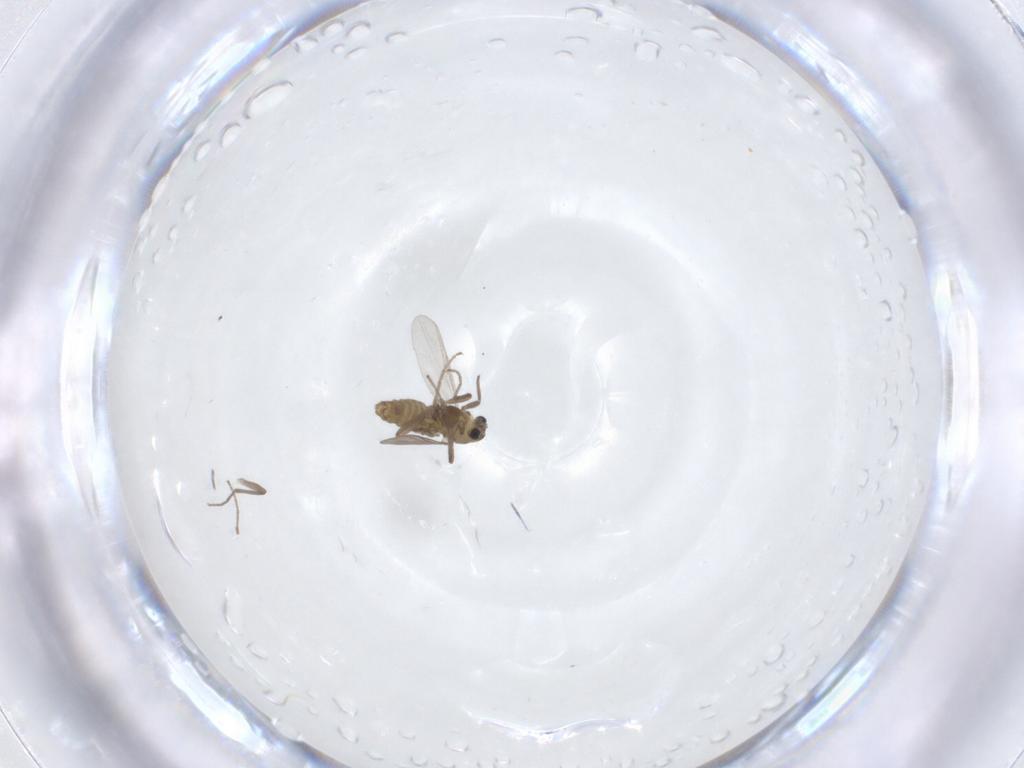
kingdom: Animalia
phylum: Arthropoda
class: Insecta
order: Diptera
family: Chironomidae
